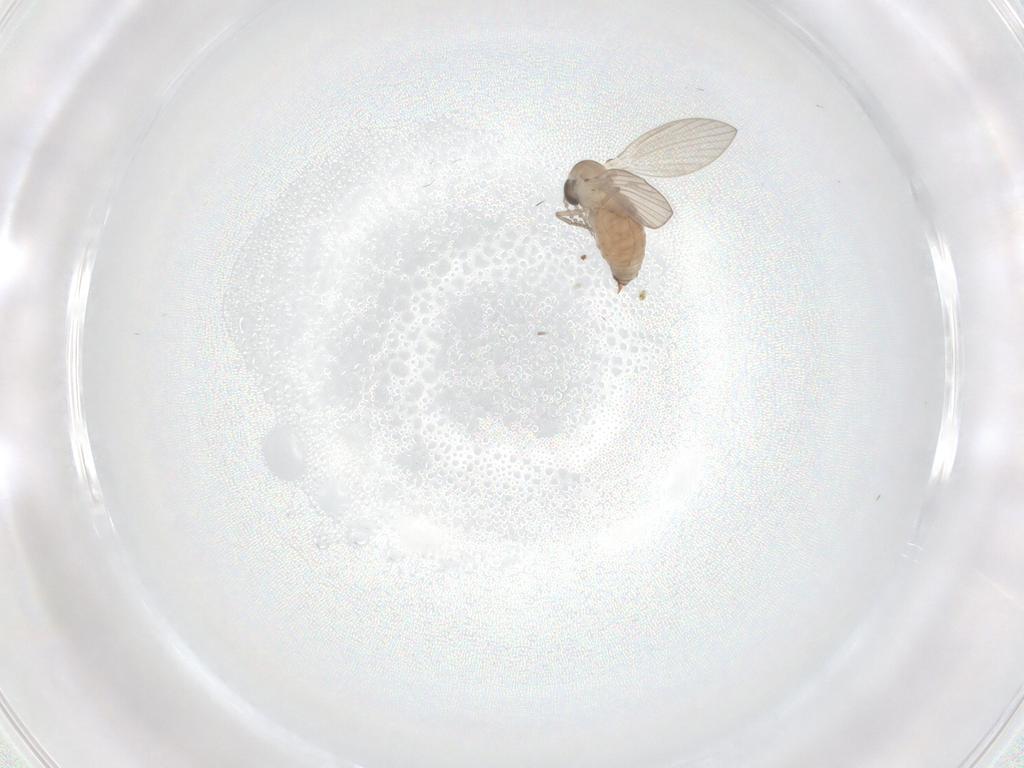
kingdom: Animalia
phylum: Arthropoda
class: Insecta
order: Diptera
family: Psychodidae
